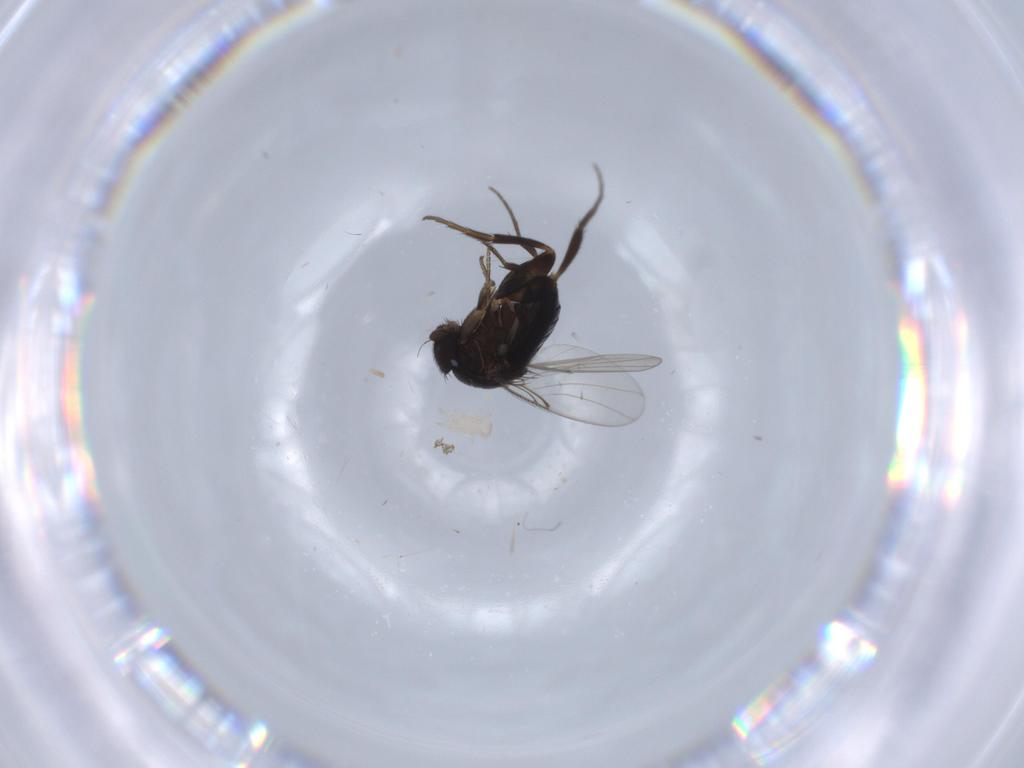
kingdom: Animalia
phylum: Arthropoda
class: Insecta
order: Diptera
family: Phoridae
